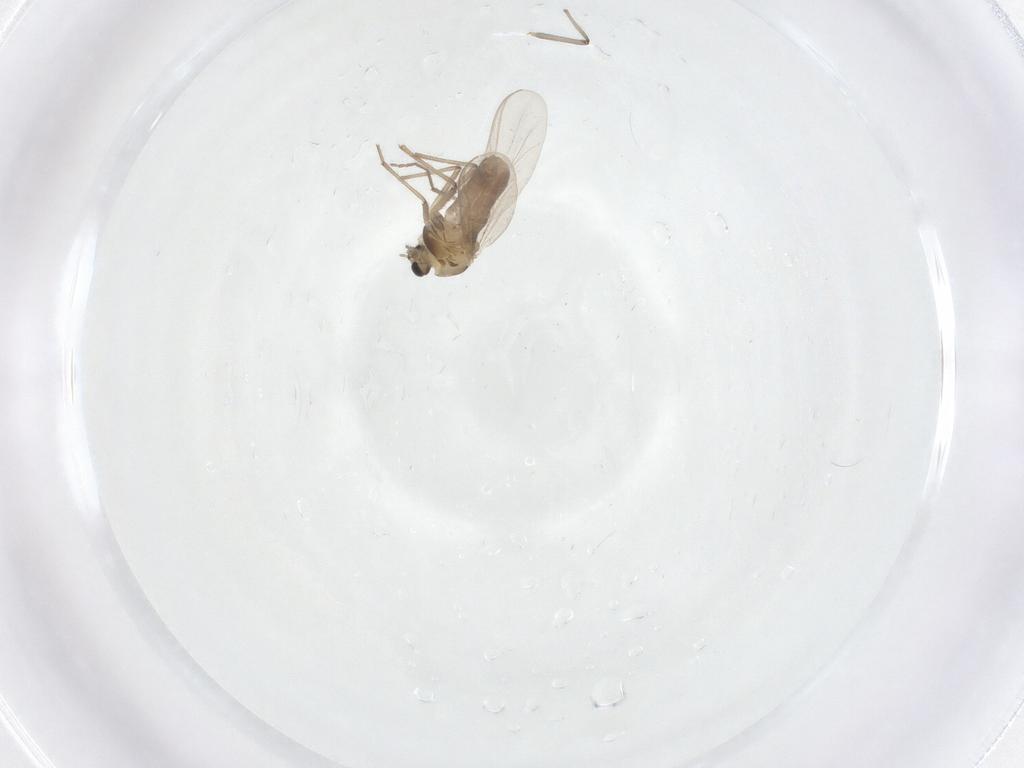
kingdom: Animalia
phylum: Arthropoda
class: Insecta
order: Diptera
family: Chironomidae
